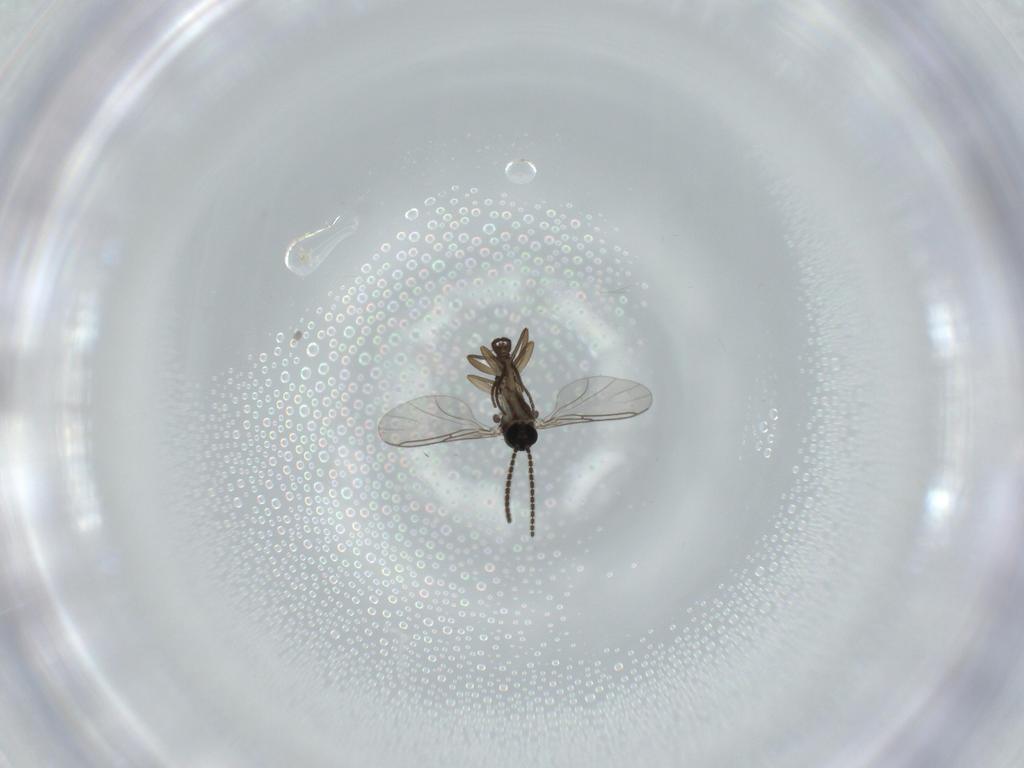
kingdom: Animalia
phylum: Arthropoda
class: Insecta
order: Diptera
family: Sciaridae
